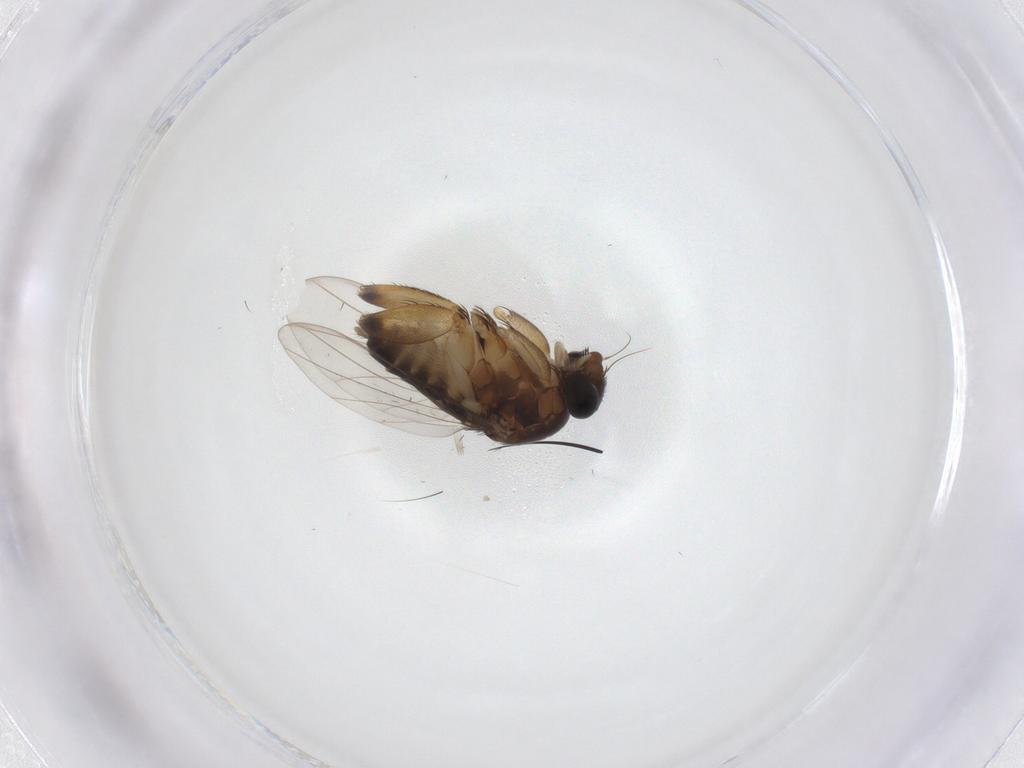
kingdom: Animalia
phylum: Arthropoda
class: Insecta
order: Diptera
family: Phoridae
